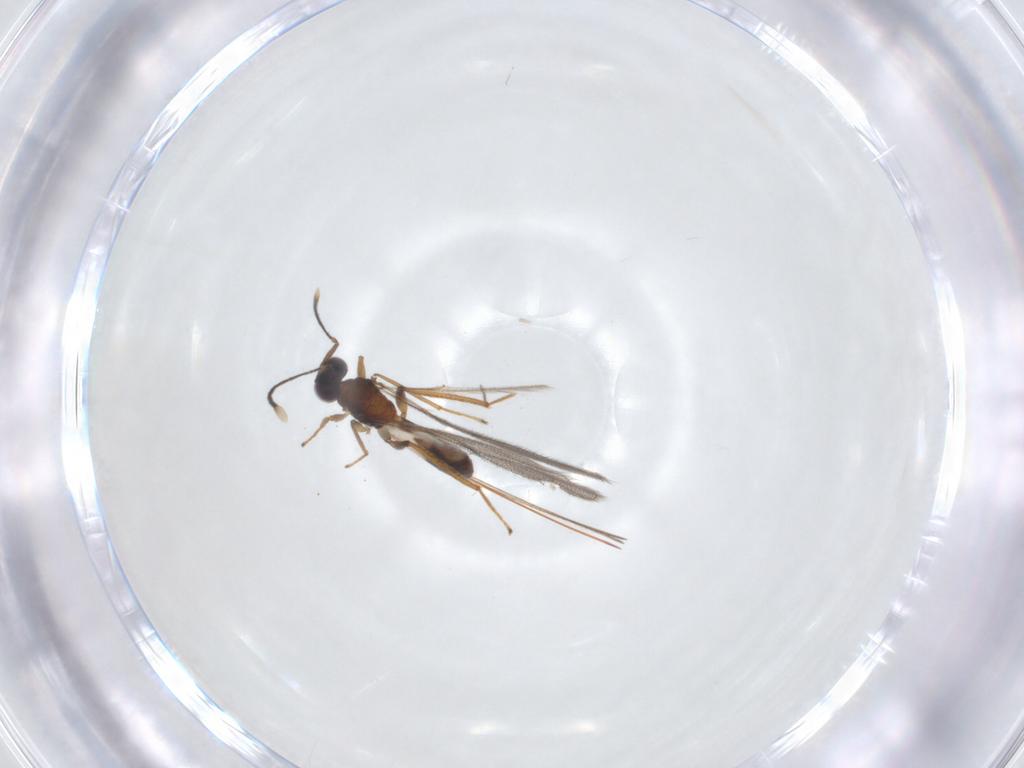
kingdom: Animalia
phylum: Arthropoda
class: Insecta
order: Hymenoptera
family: Mymaridae
